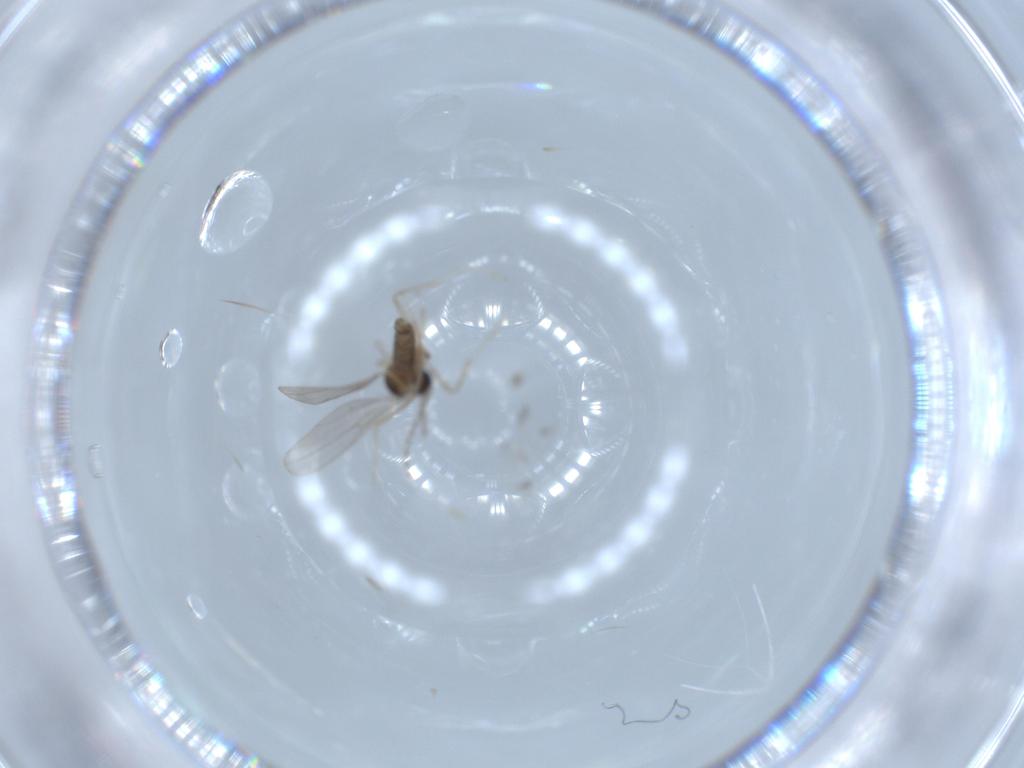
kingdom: Animalia
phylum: Arthropoda
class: Insecta
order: Diptera
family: Cecidomyiidae
